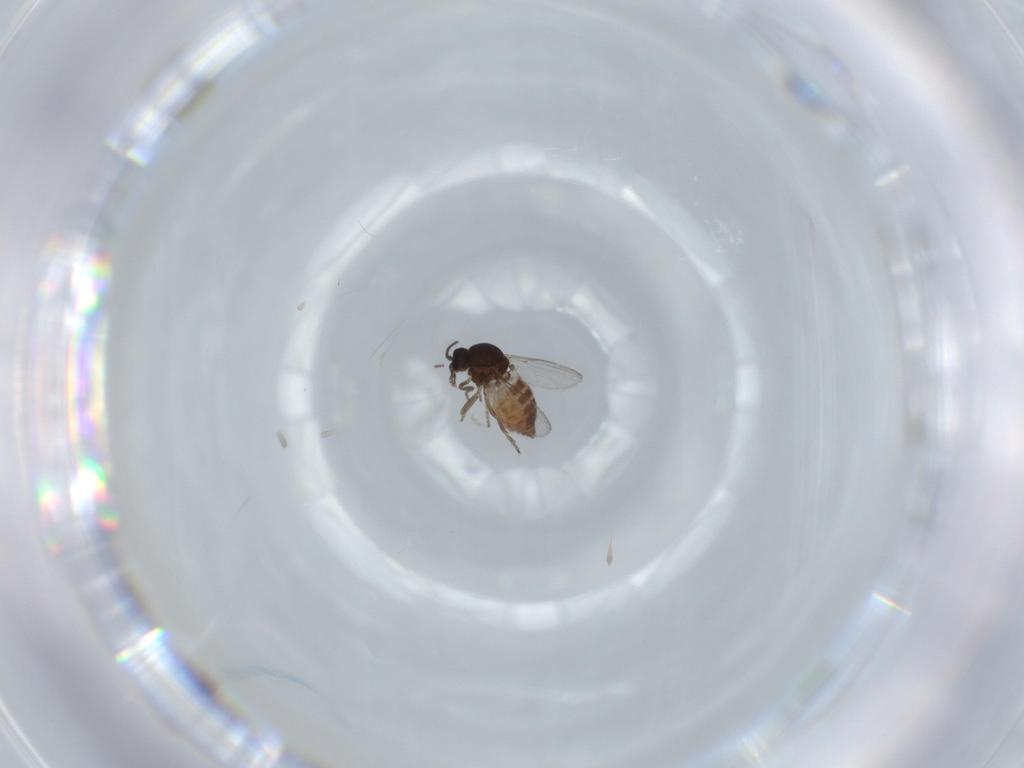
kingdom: Animalia
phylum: Arthropoda
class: Insecta
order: Diptera
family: Ceratopogonidae
